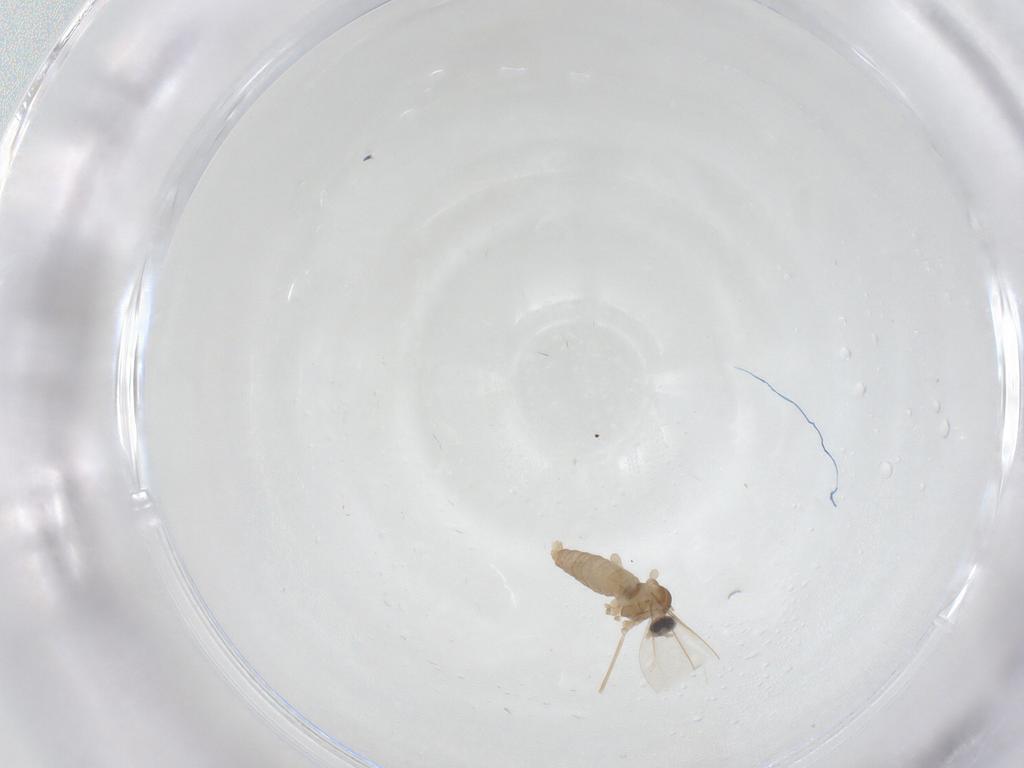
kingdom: Animalia
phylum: Arthropoda
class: Insecta
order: Diptera
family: Cecidomyiidae
